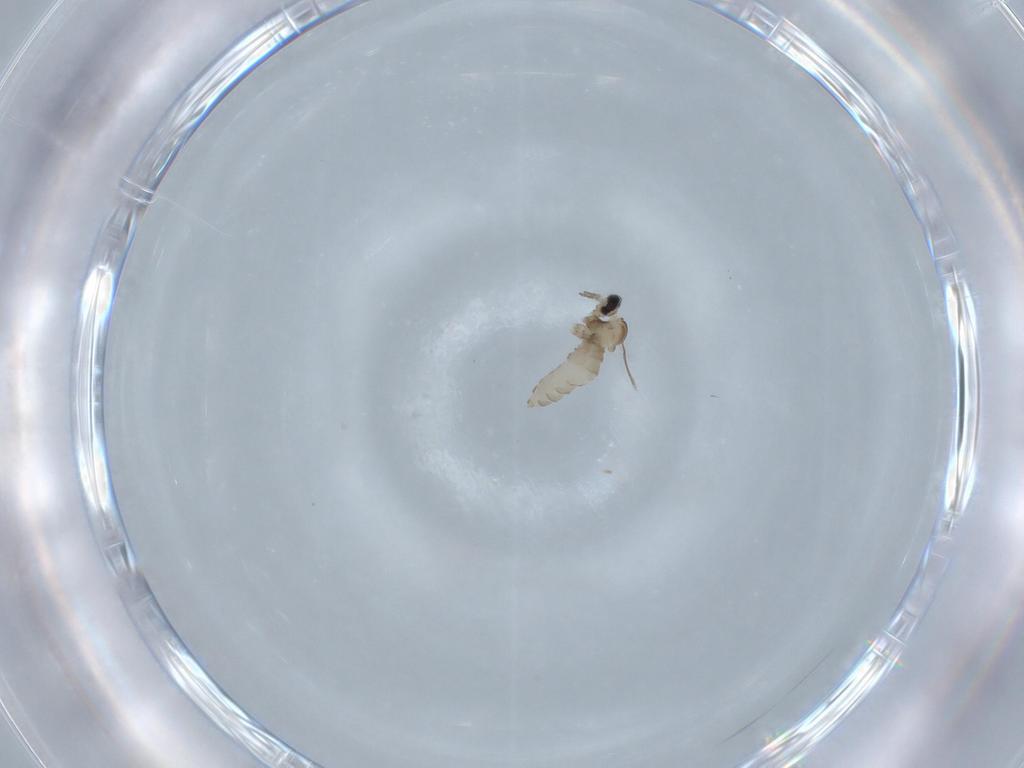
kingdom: Animalia
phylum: Arthropoda
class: Insecta
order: Diptera
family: Cecidomyiidae
